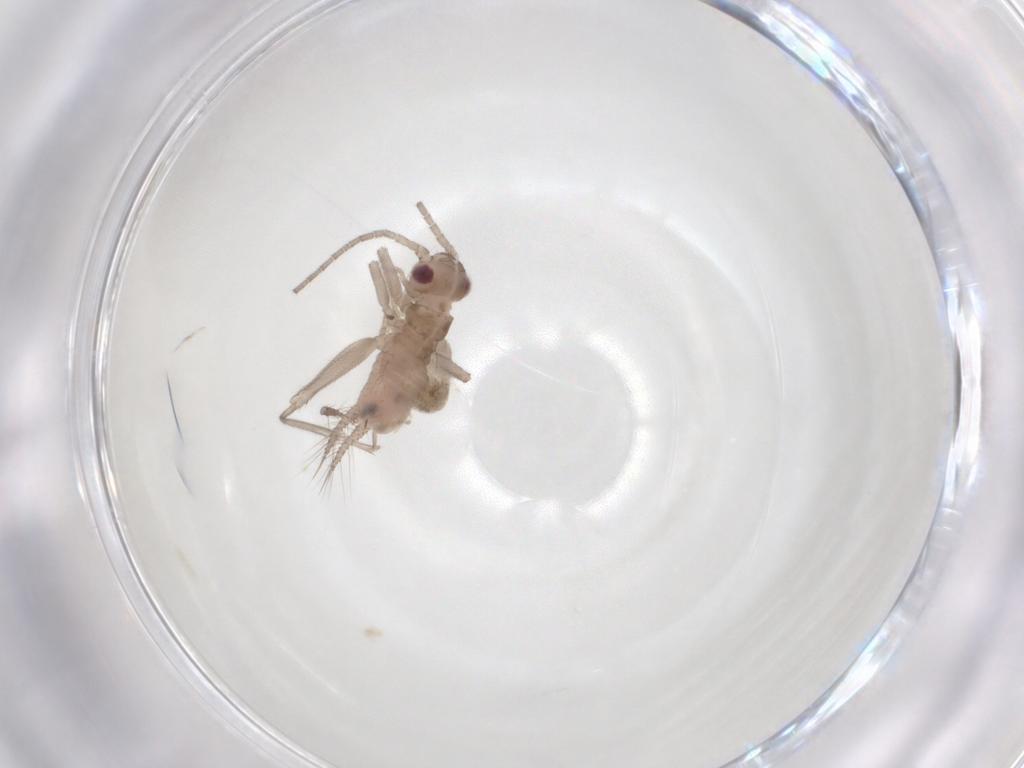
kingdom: Animalia
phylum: Arthropoda
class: Insecta
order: Orthoptera
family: Trigonidiidae
